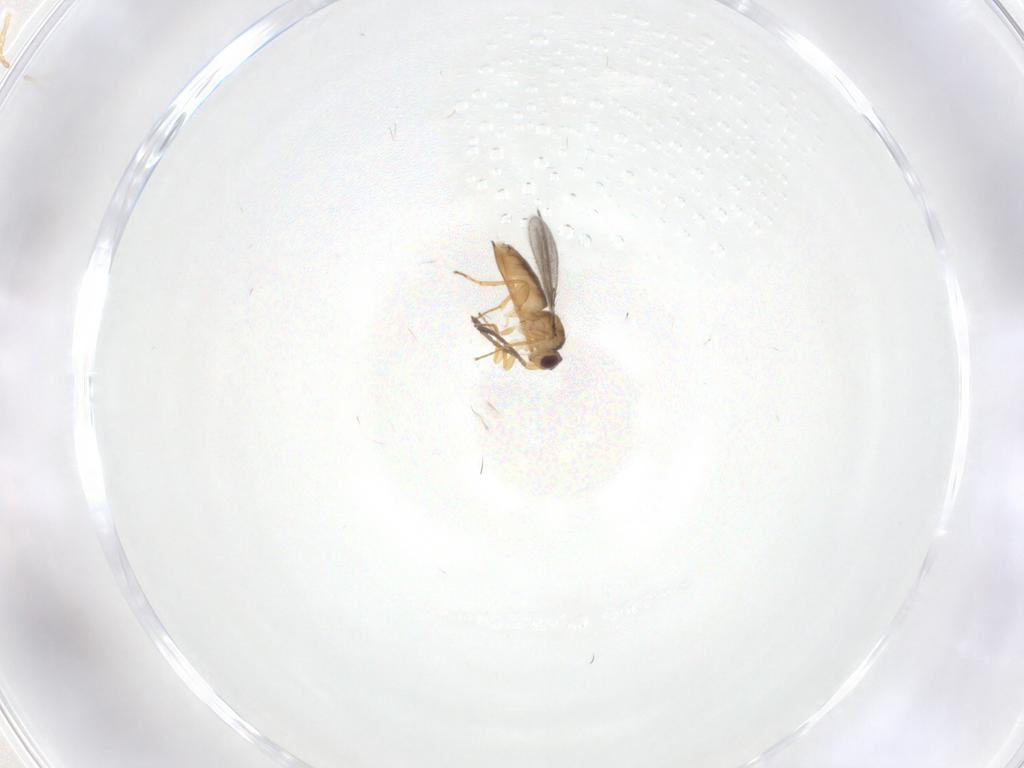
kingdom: Animalia
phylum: Arthropoda
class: Insecta
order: Hymenoptera
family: Mymaridae
